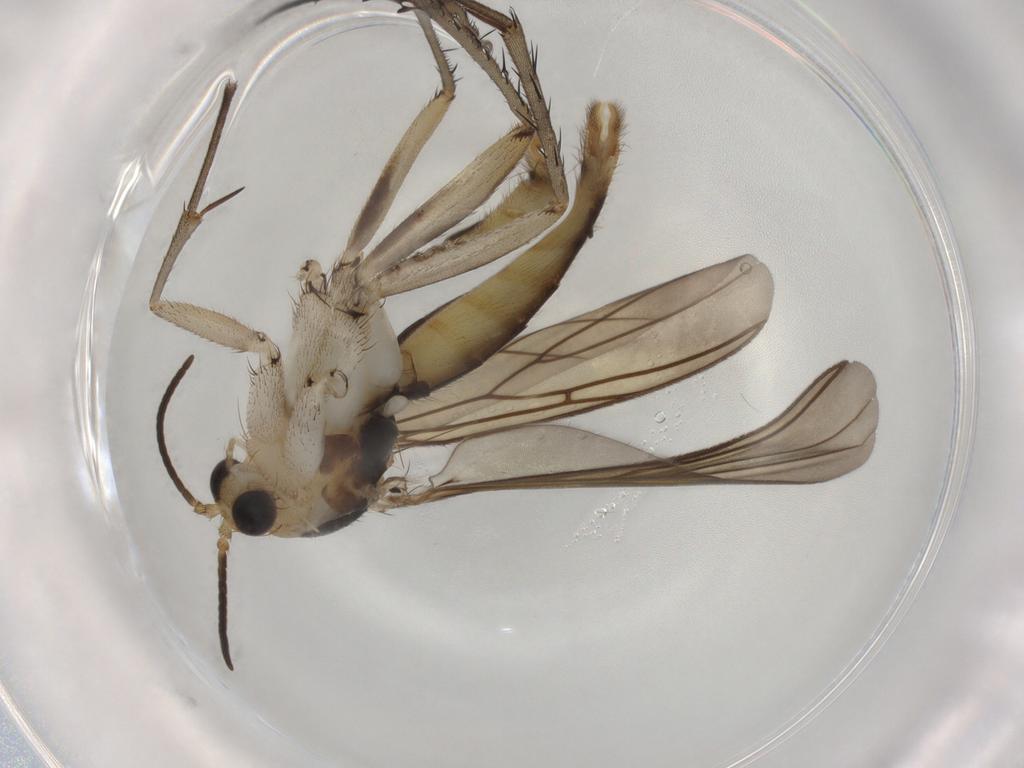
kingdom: Animalia
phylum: Arthropoda
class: Insecta
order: Diptera
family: Mycetophilidae
